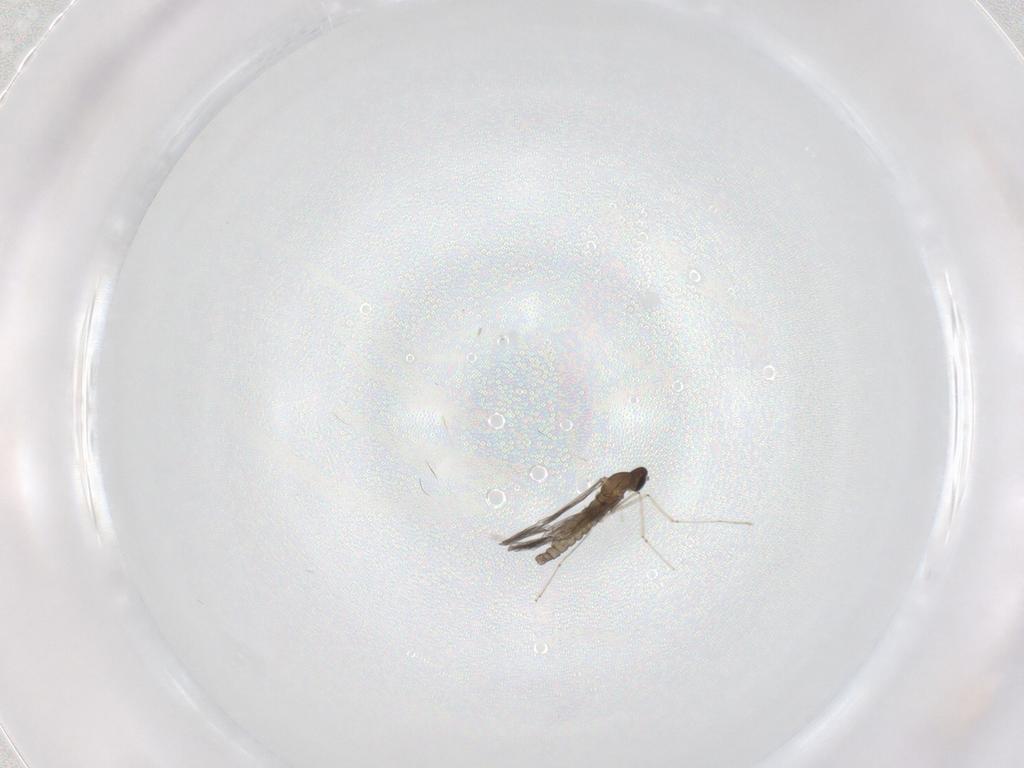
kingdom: Animalia
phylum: Arthropoda
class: Insecta
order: Diptera
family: Cecidomyiidae
